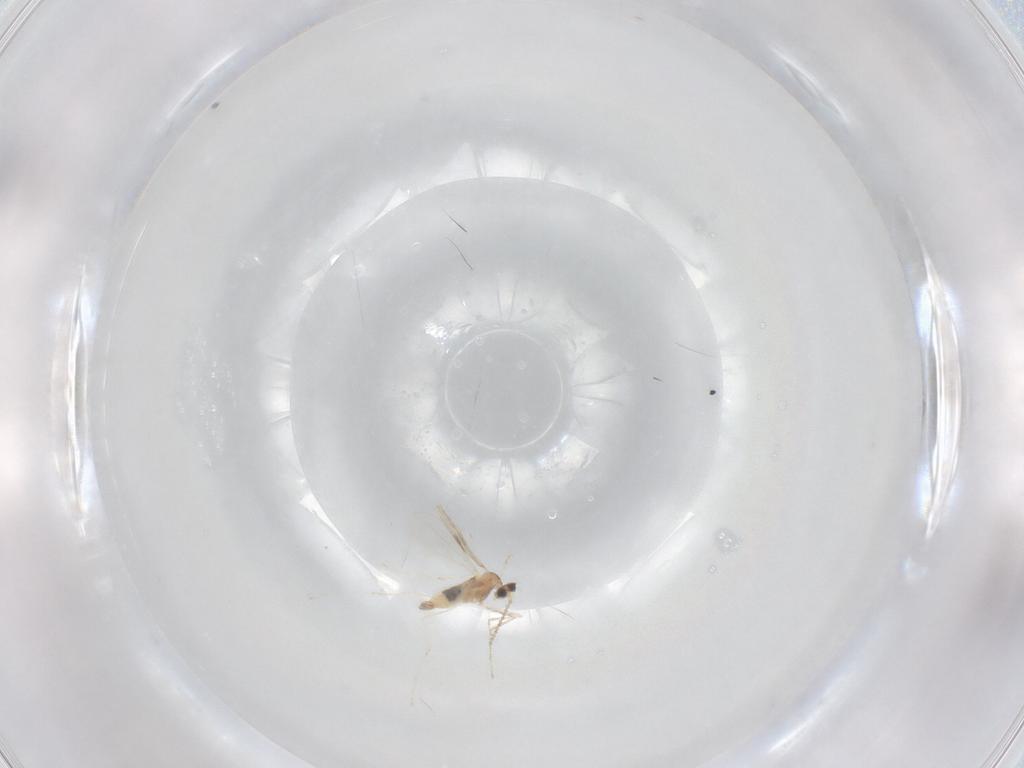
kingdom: Animalia
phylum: Arthropoda
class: Insecta
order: Diptera
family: Cecidomyiidae
